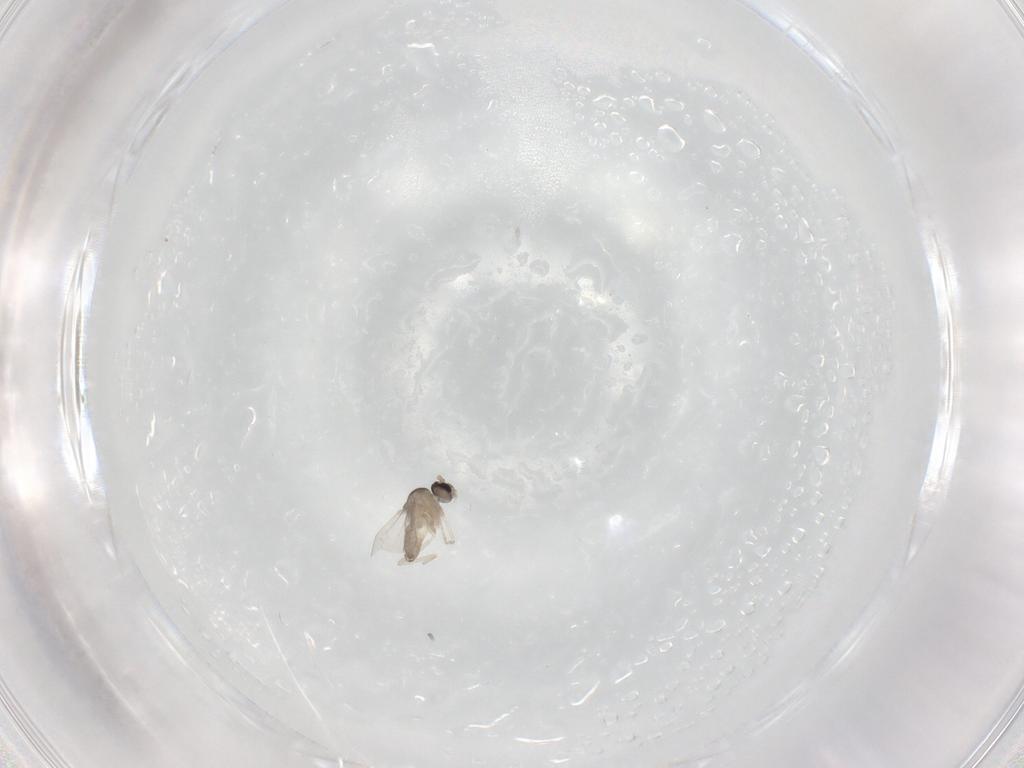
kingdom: Animalia
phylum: Arthropoda
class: Insecta
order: Diptera
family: Cecidomyiidae
